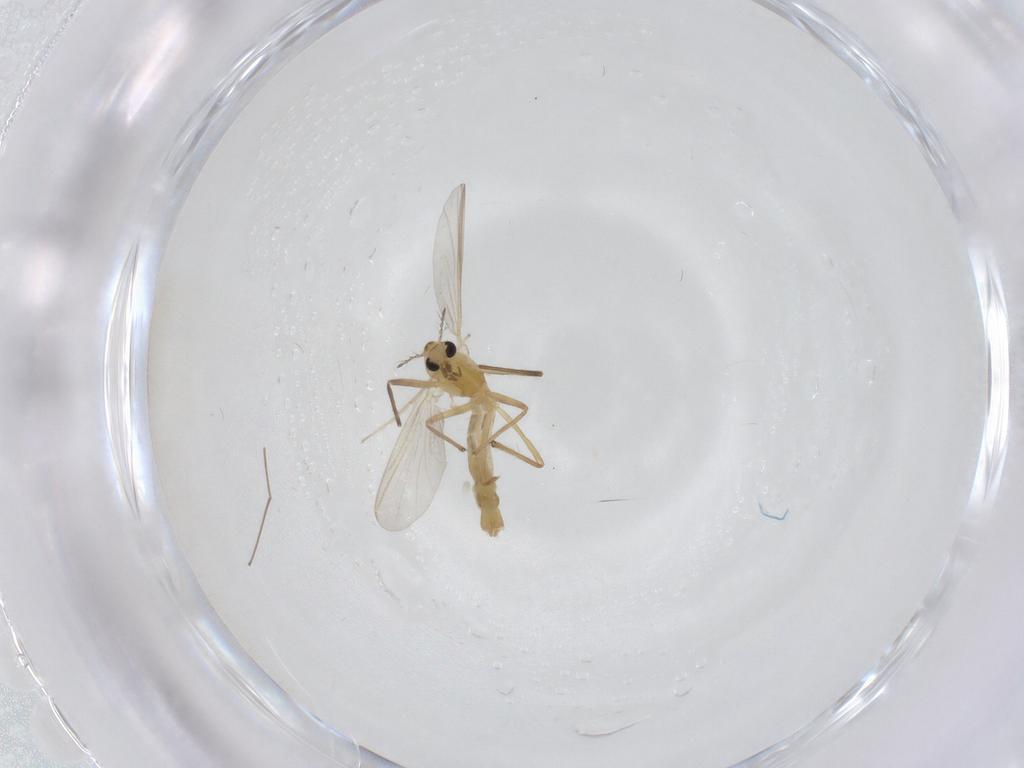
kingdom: Animalia
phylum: Arthropoda
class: Insecta
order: Diptera
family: Chironomidae
